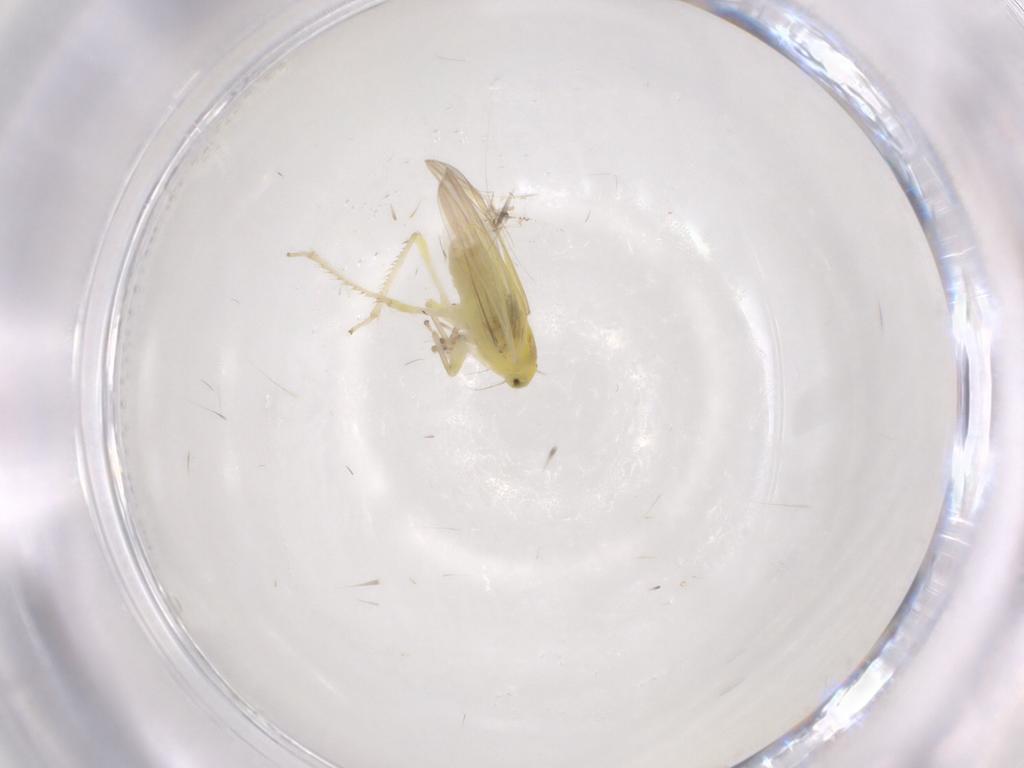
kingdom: Animalia
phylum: Arthropoda
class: Insecta
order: Hemiptera
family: Cicadellidae
